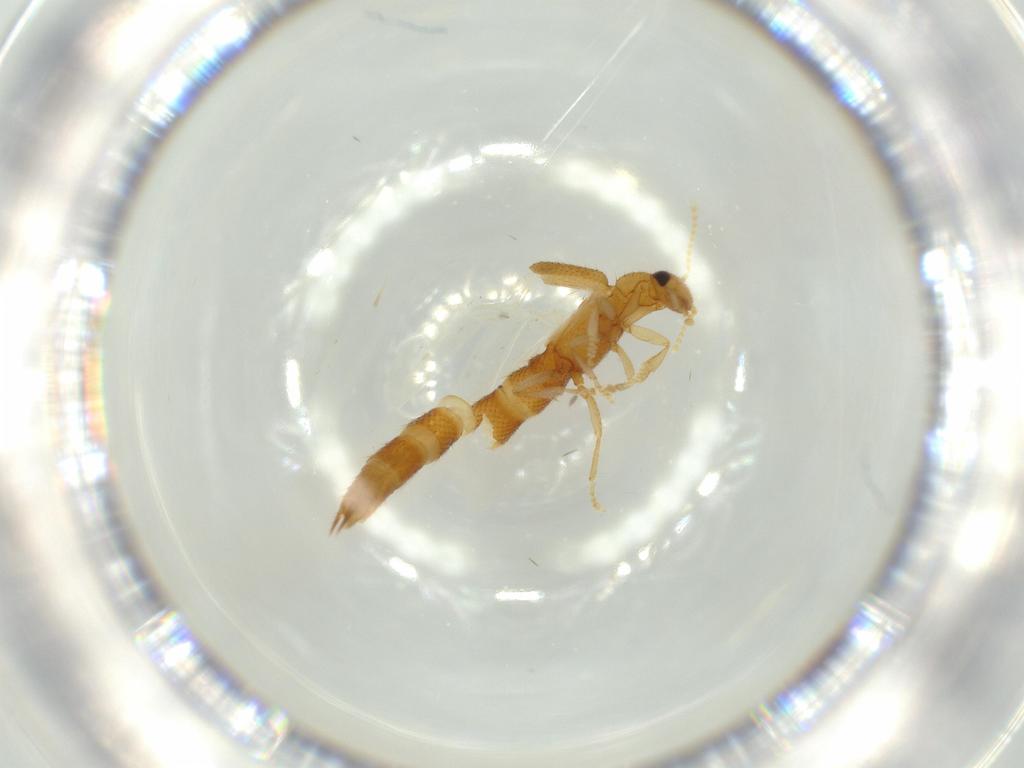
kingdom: Animalia
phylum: Arthropoda
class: Insecta
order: Coleoptera
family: Staphylinidae
